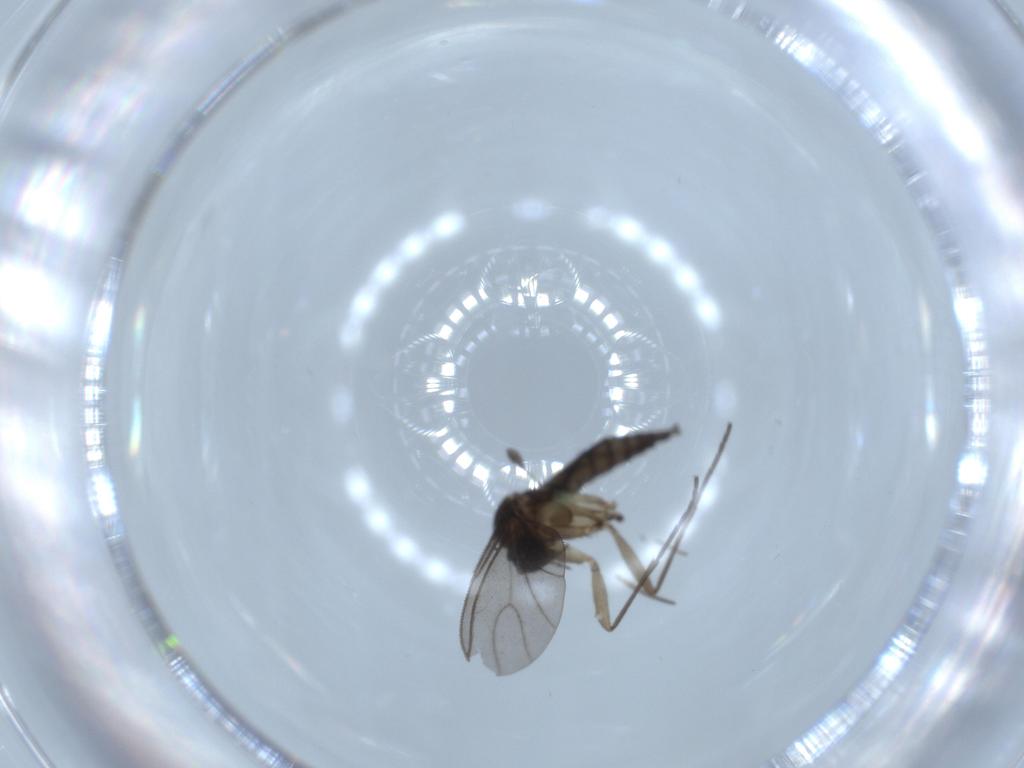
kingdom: Animalia
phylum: Arthropoda
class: Insecta
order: Diptera
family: Sciaridae
